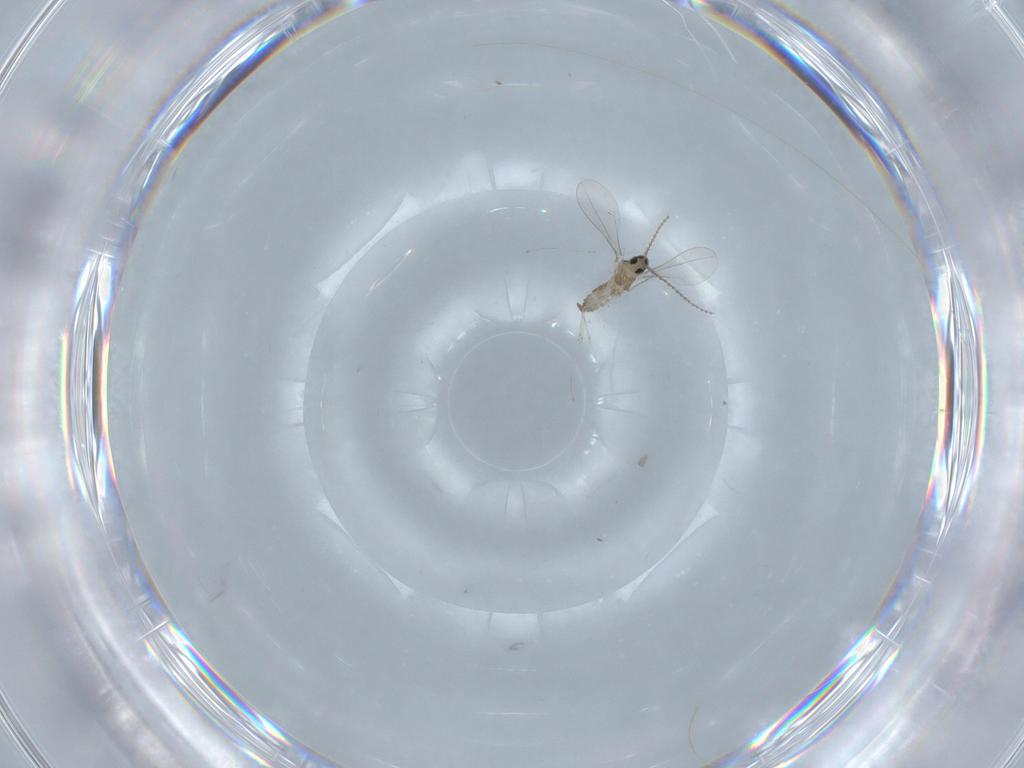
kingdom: Animalia
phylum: Arthropoda
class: Insecta
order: Diptera
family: Cecidomyiidae
